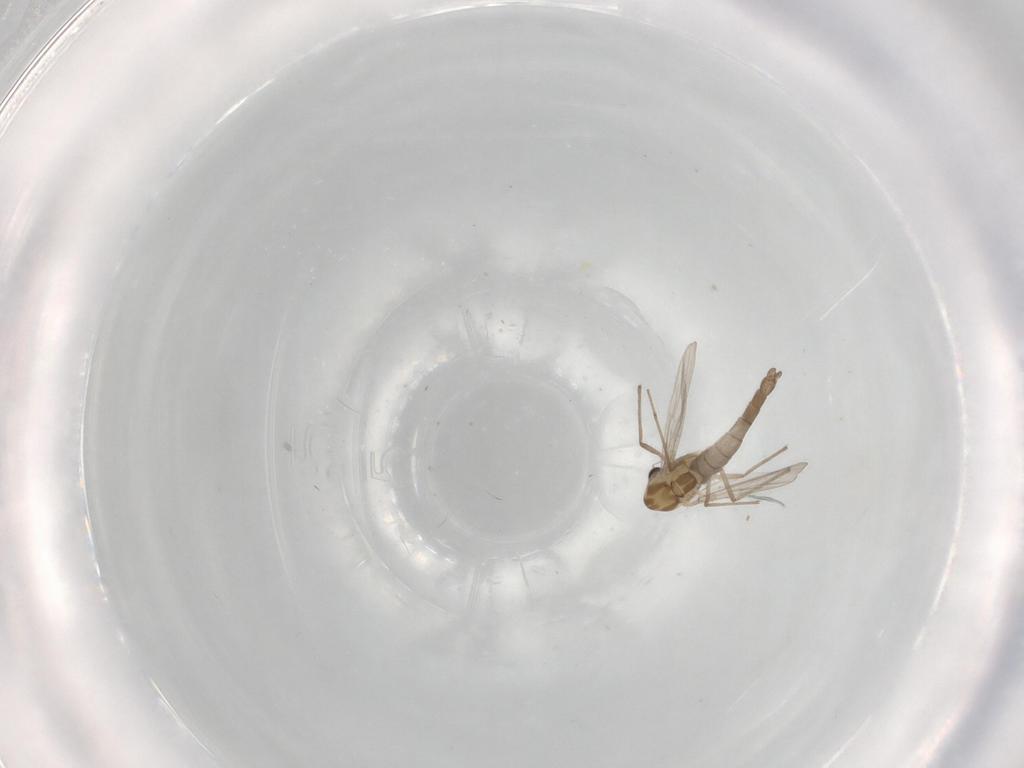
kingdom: Animalia
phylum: Arthropoda
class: Insecta
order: Diptera
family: Chironomidae
